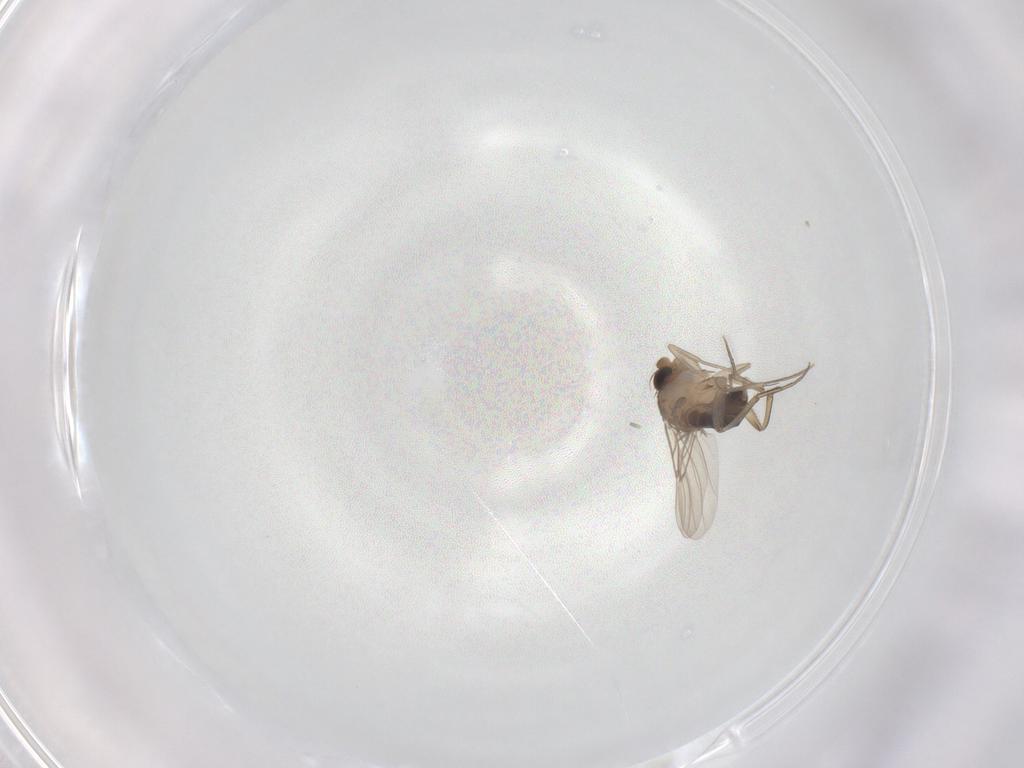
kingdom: Animalia
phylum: Arthropoda
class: Insecta
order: Diptera
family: Phoridae
